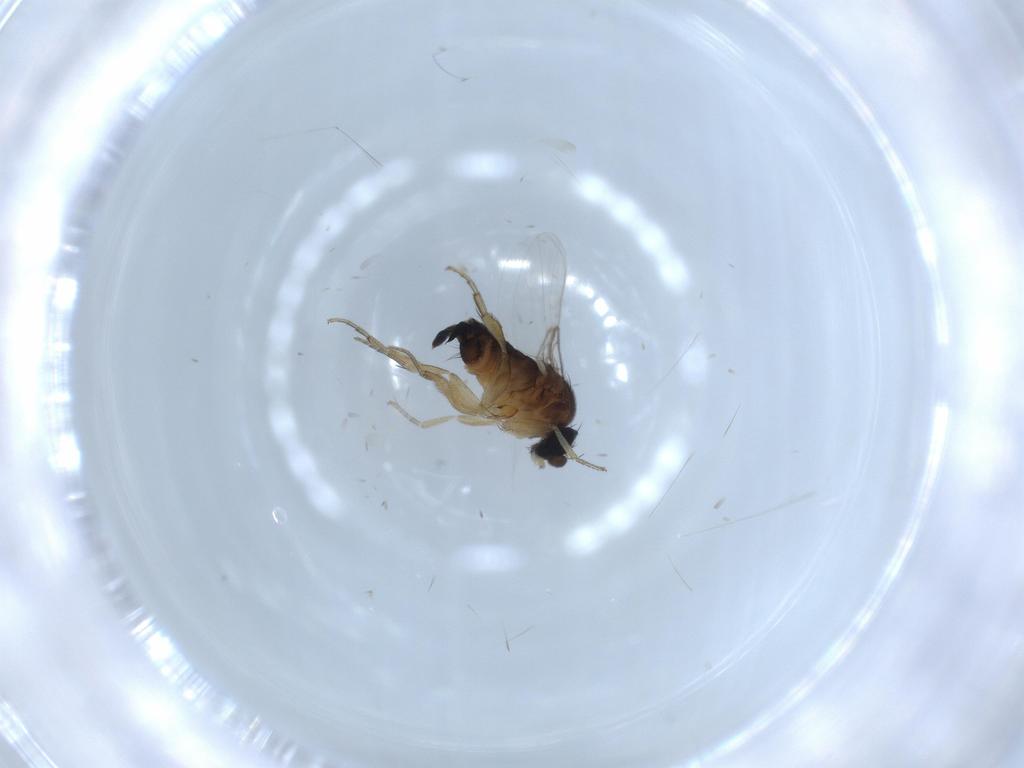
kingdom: Animalia
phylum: Arthropoda
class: Insecta
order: Diptera
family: Phoridae
